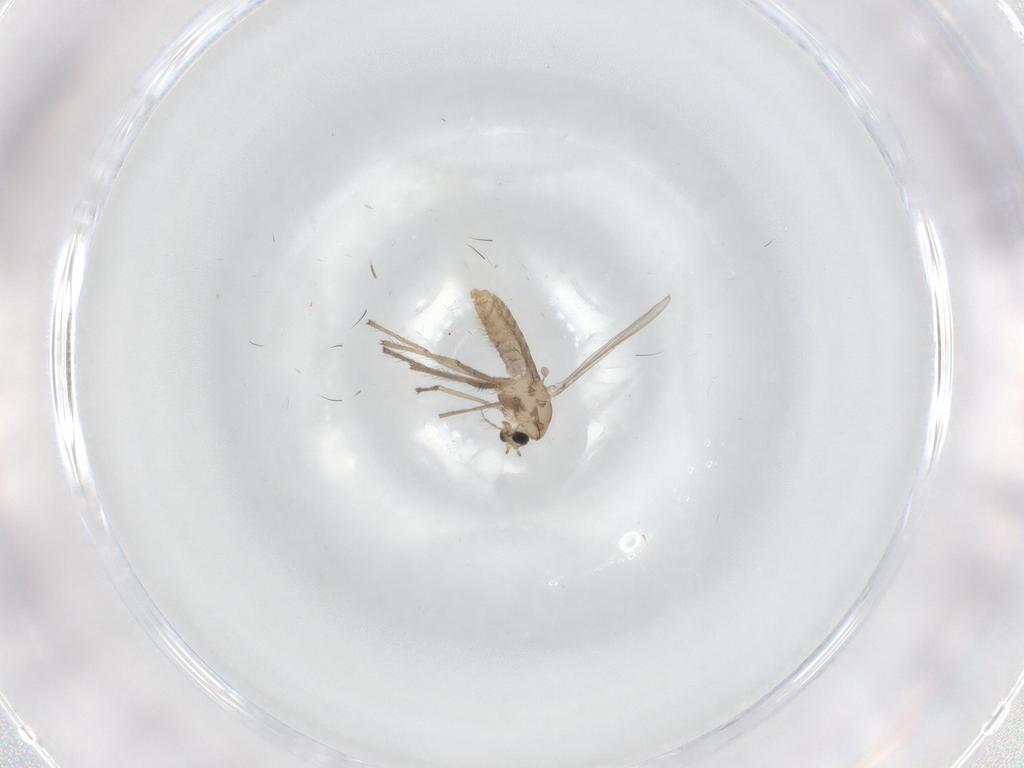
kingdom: Animalia
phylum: Arthropoda
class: Insecta
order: Diptera
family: Chironomidae
